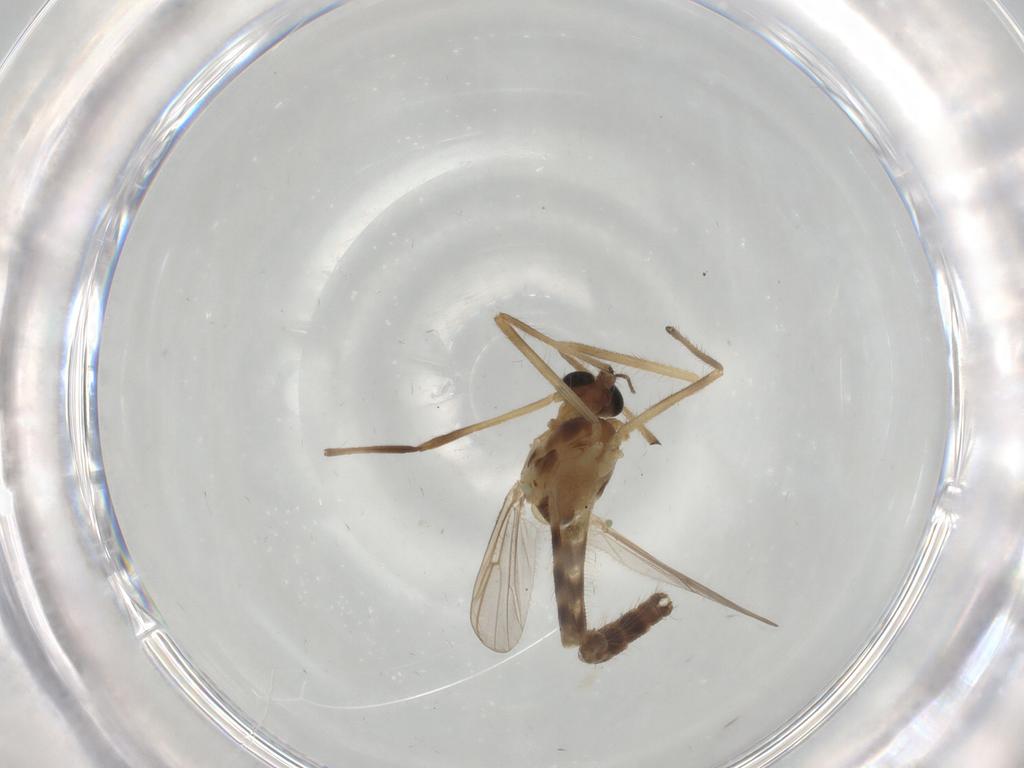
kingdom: Animalia
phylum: Arthropoda
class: Insecta
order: Diptera
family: Chironomidae
